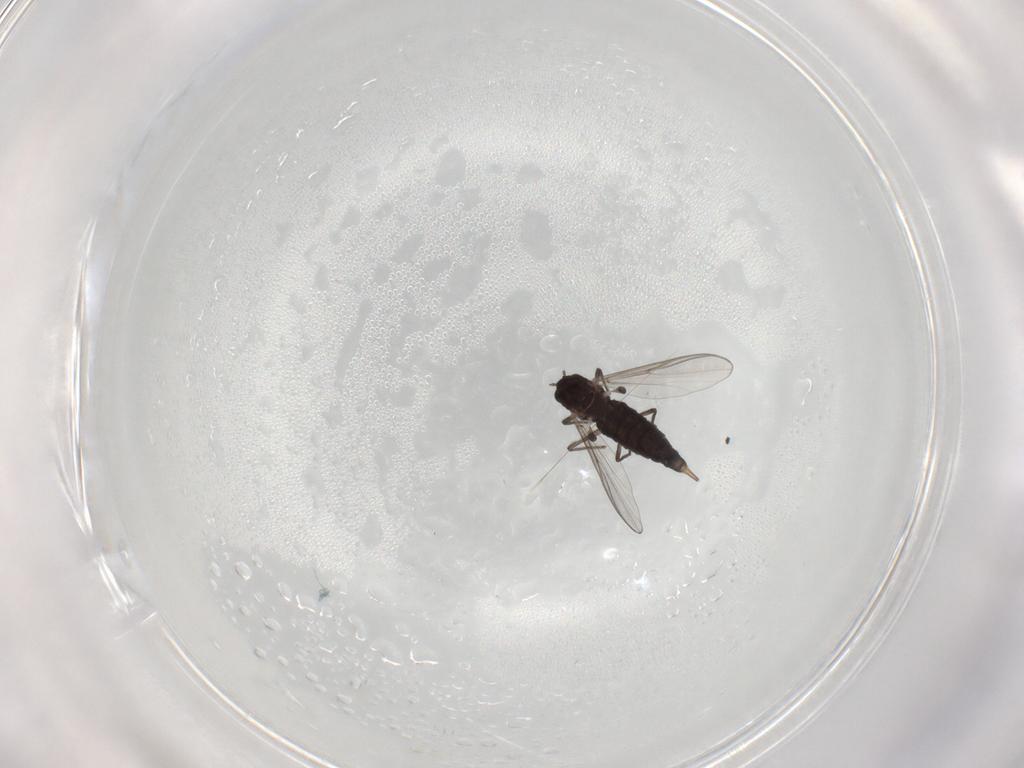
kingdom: Animalia
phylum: Arthropoda
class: Insecta
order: Diptera
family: Chironomidae
